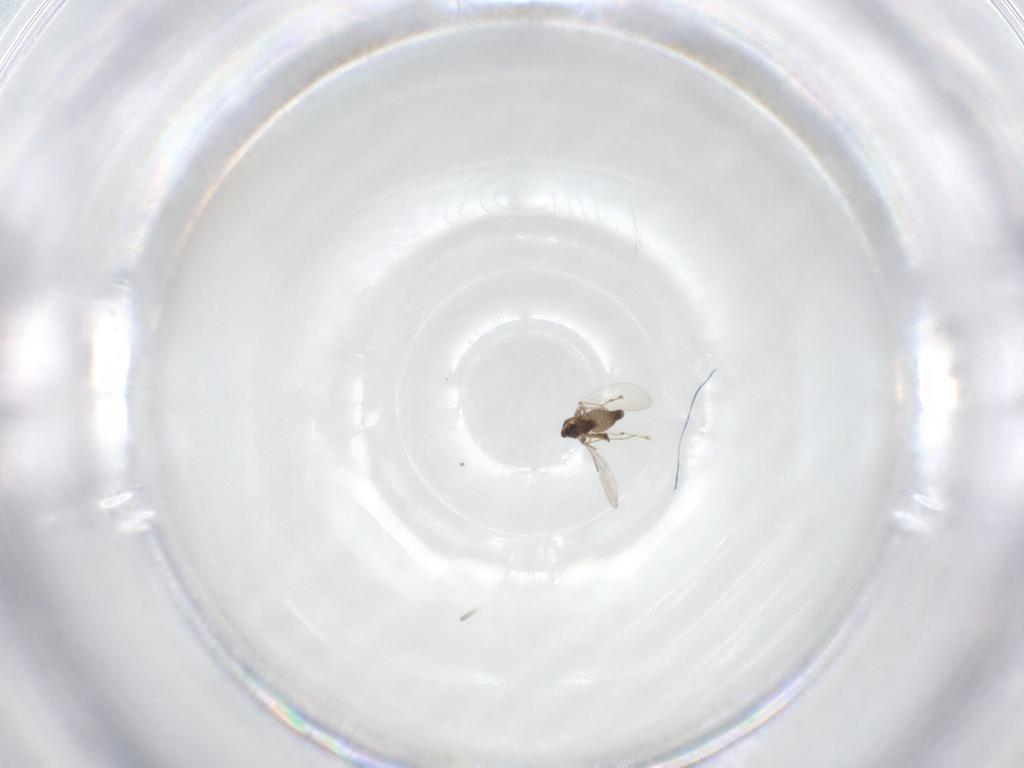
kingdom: Animalia
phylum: Arthropoda
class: Insecta
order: Diptera
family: Chironomidae
